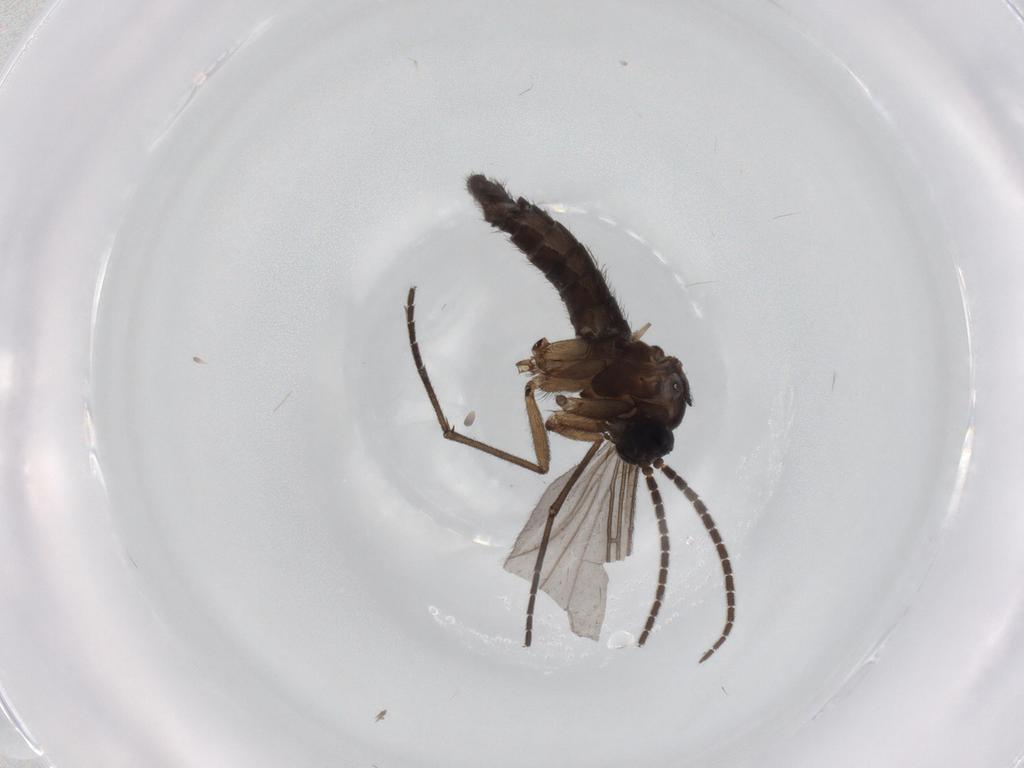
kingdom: Animalia
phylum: Arthropoda
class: Insecta
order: Diptera
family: Sciaridae
